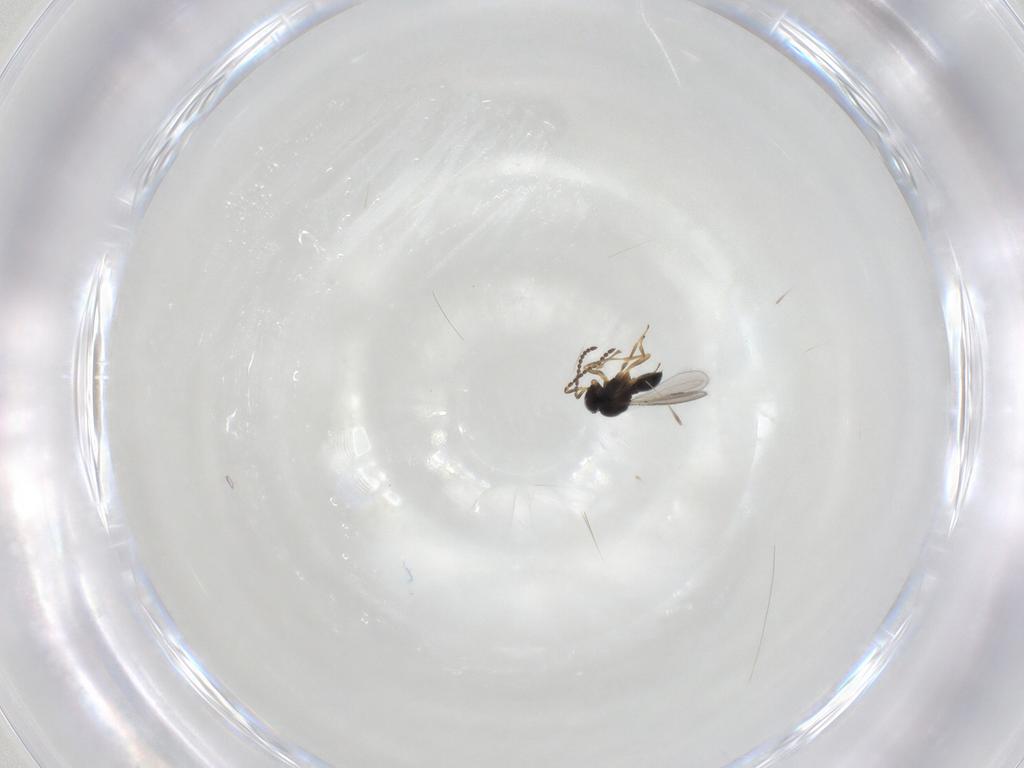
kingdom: Animalia
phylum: Arthropoda
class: Insecta
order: Hymenoptera
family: Scelionidae
